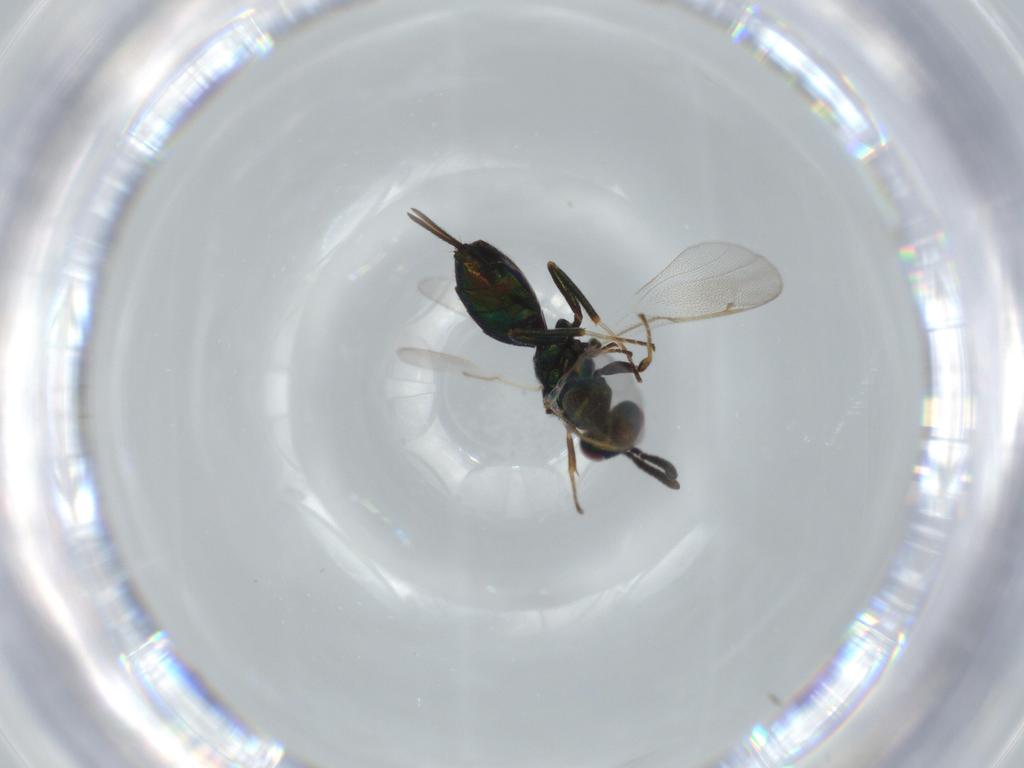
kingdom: Animalia
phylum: Arthropoda
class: Insecta
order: Hymenoptera
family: Torymidae
